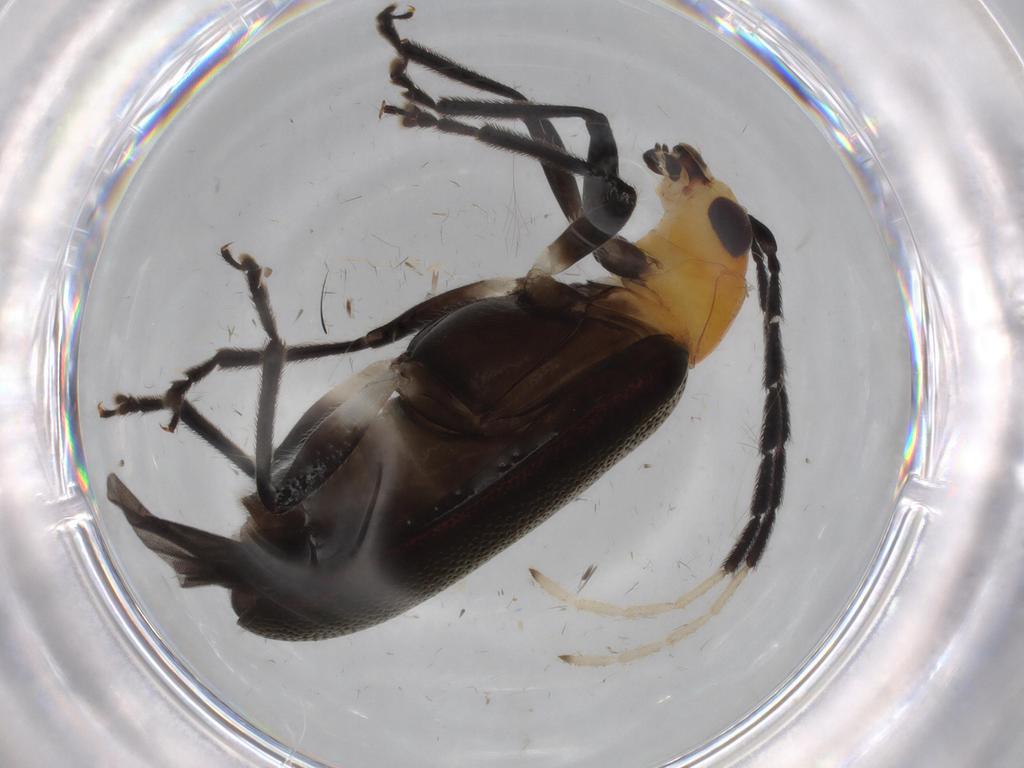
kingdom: Animalia
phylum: Arthropoda
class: Insecta
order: Coleoptera
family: Chrysomelidae
